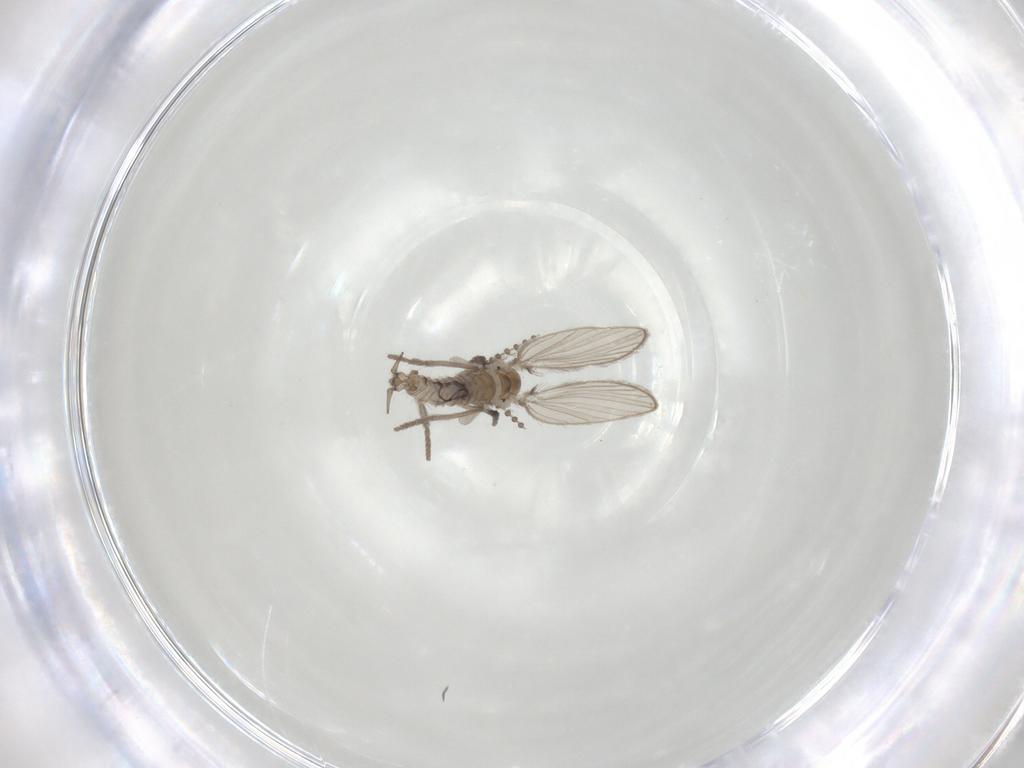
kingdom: Animalia
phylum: Arthropoda
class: Insecta
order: Diptera
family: Psychodidae
